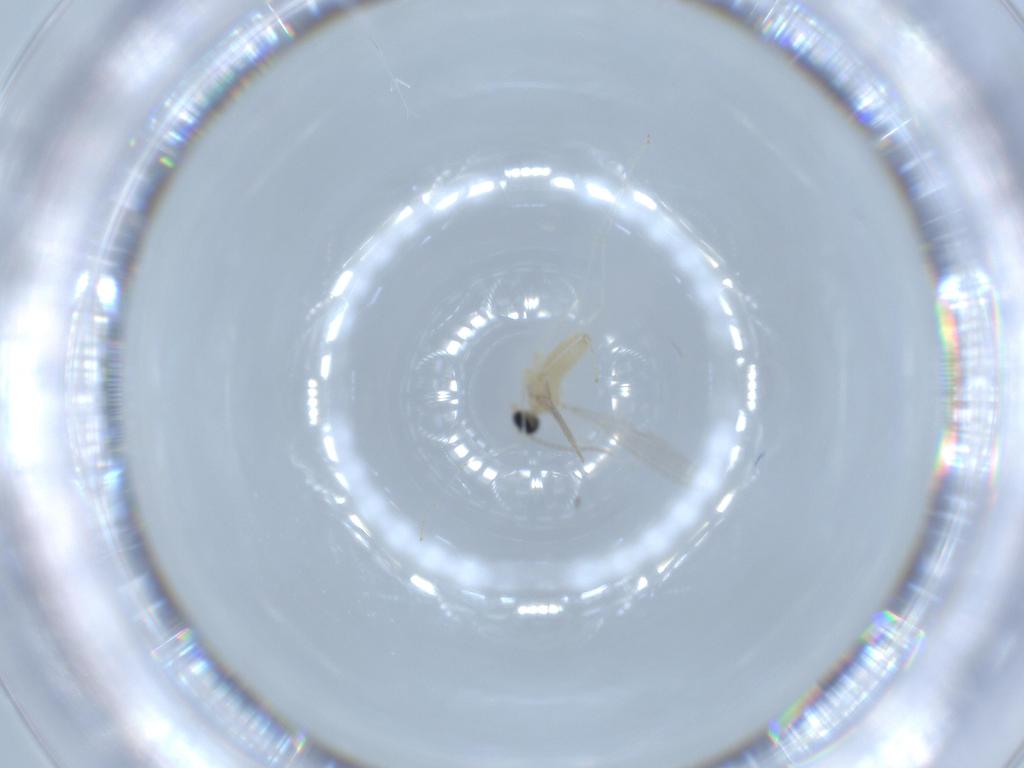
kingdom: Animalia
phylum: Arthropoda
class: Insecta
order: Diptera
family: Cecidomyiidae
